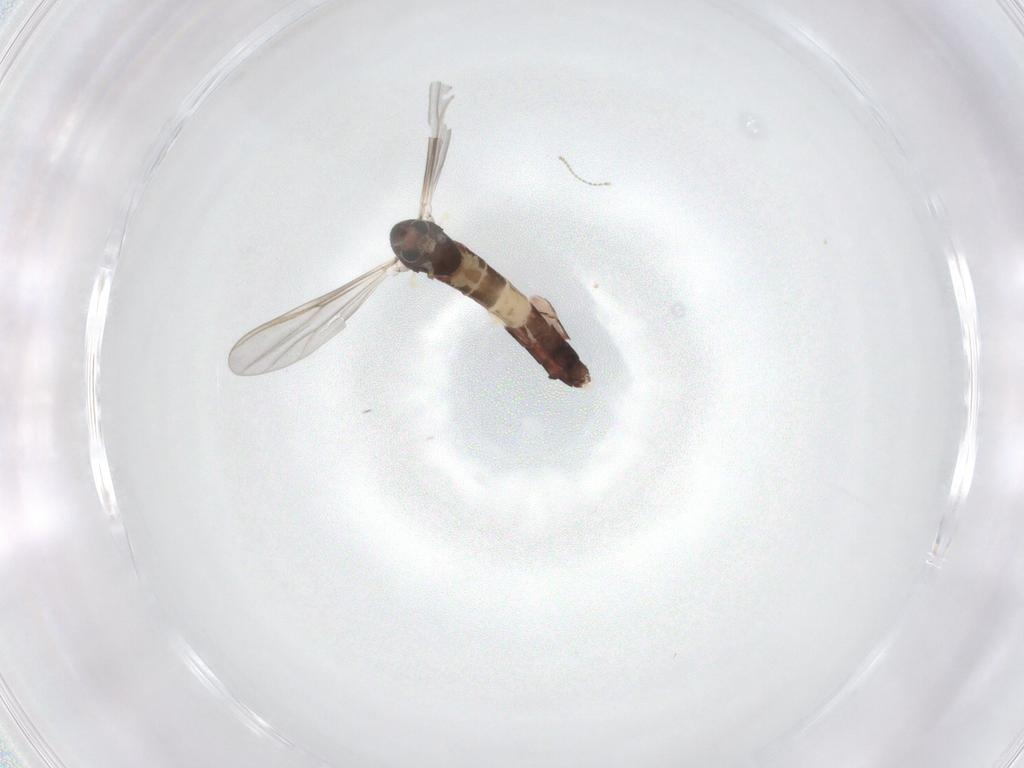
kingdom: Animalia
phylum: Arthropoda
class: Insecta
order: Diptera
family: Chironomidae
